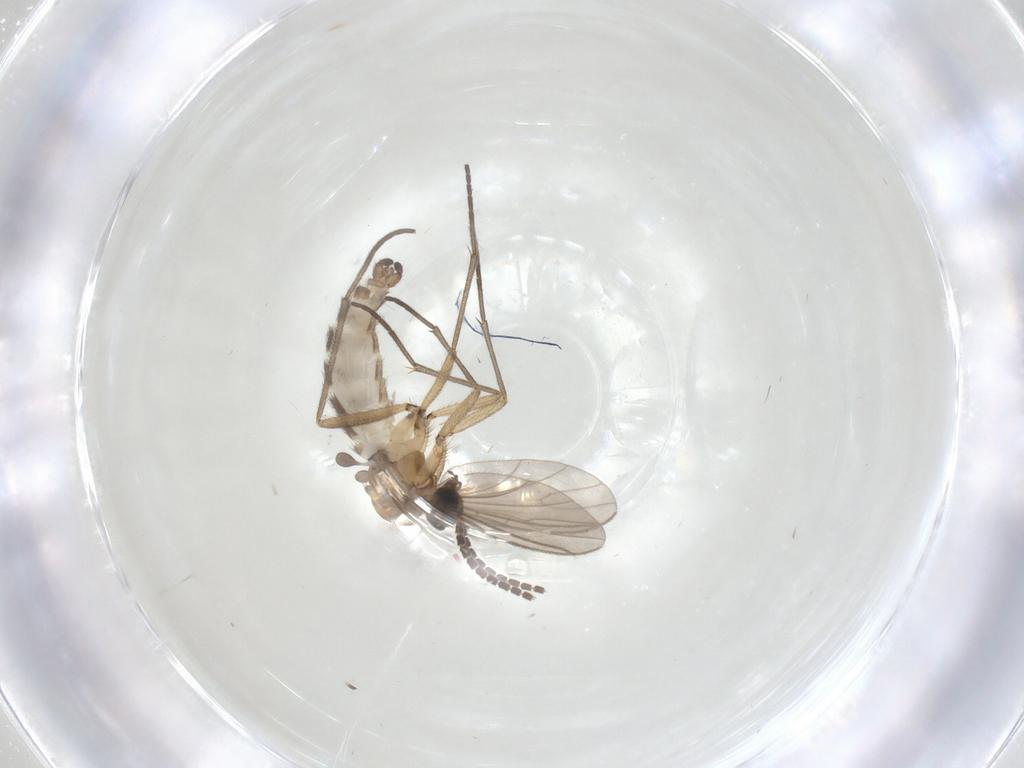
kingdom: Animalia
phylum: Arthropoda
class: Insecta
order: Diptera
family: Sciaridae
